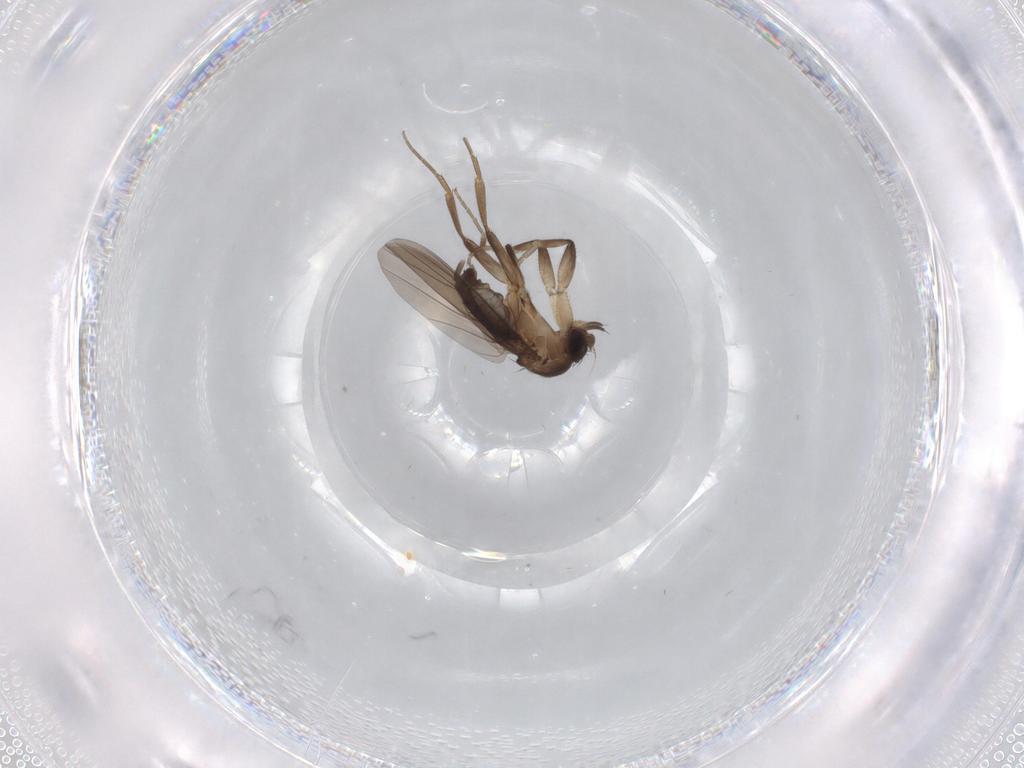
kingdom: Animalia
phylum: Arthropoda
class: Insecta
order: Diptera
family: Phoridae
